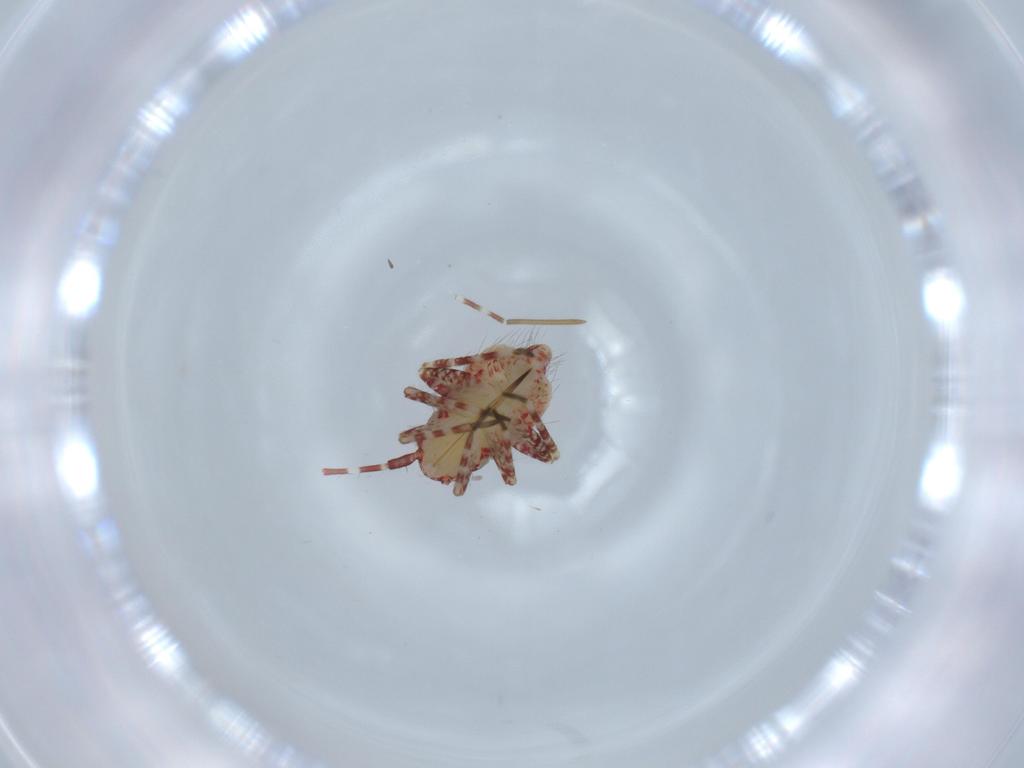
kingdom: Animalia
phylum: Arthropoda
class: Insecta
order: Hemiptera
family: Miridae
